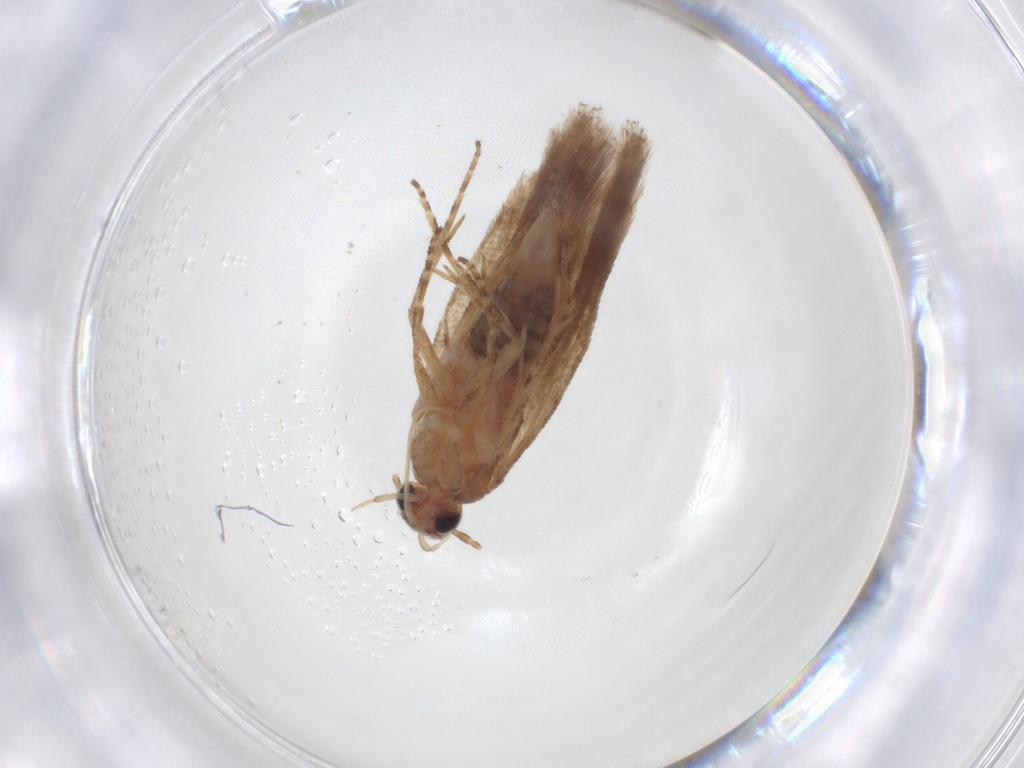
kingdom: Animalia
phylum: Arthropoda
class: Insecta
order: Lepidoptera
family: Gelechiidae
